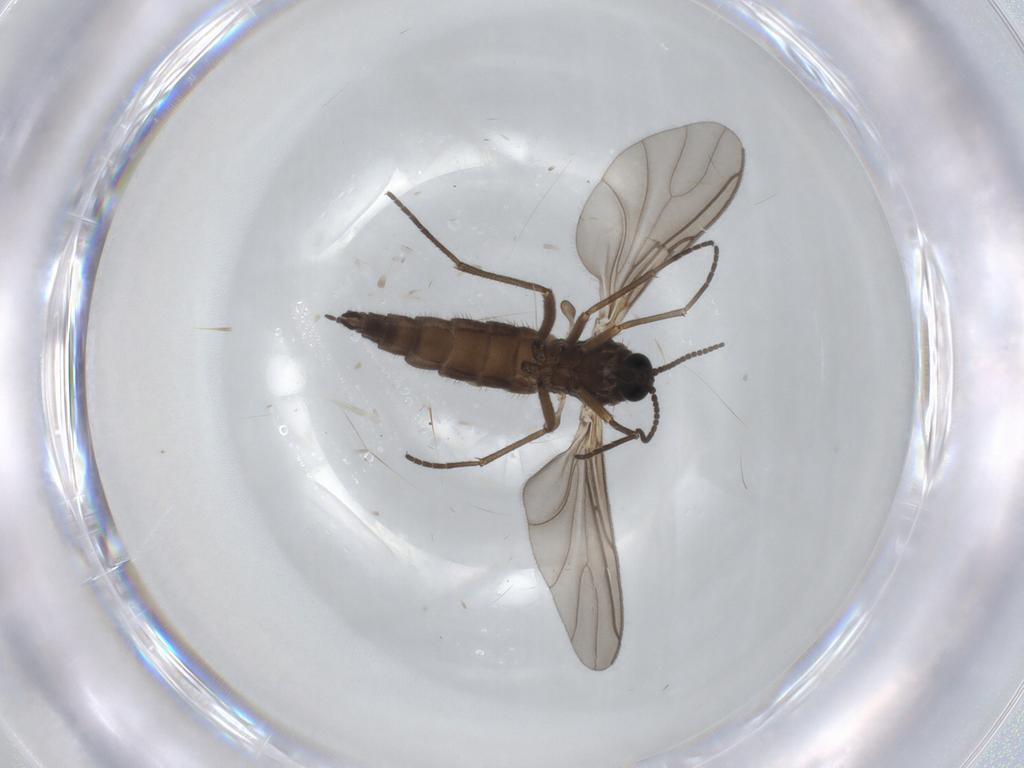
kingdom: Animalia
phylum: Arthropoda
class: Insecta
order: Diptera
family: Sciaridae
